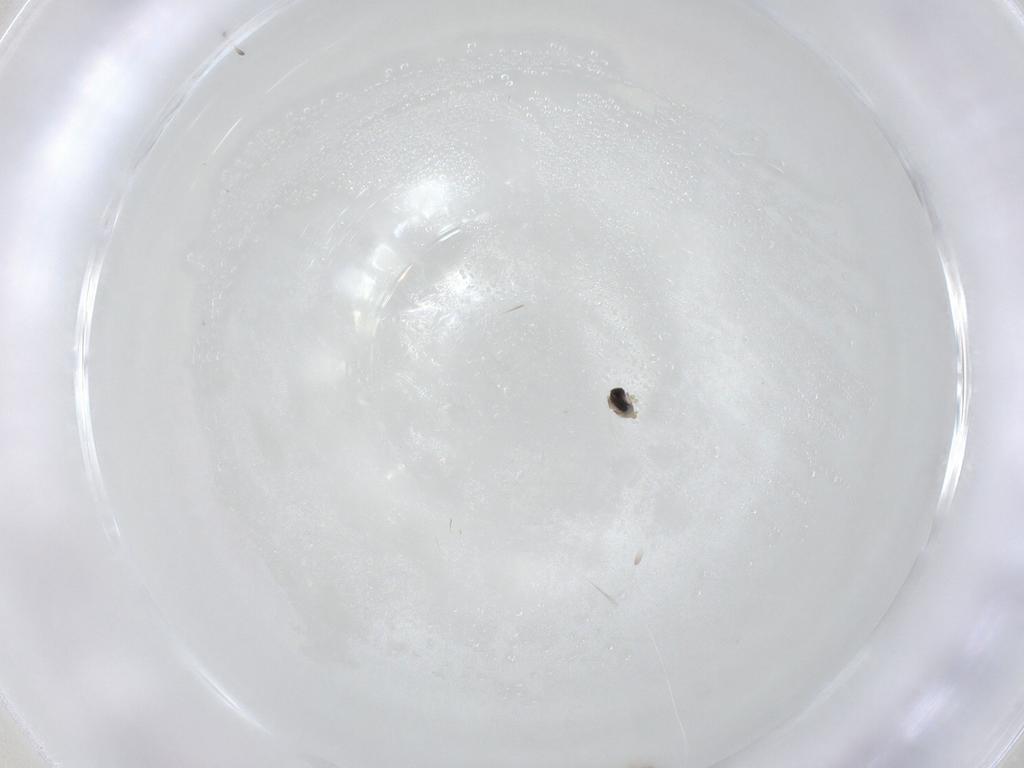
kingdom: Animalia
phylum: Arthropoda
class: Insecta
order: Diptera
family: Cecidomyiidae
